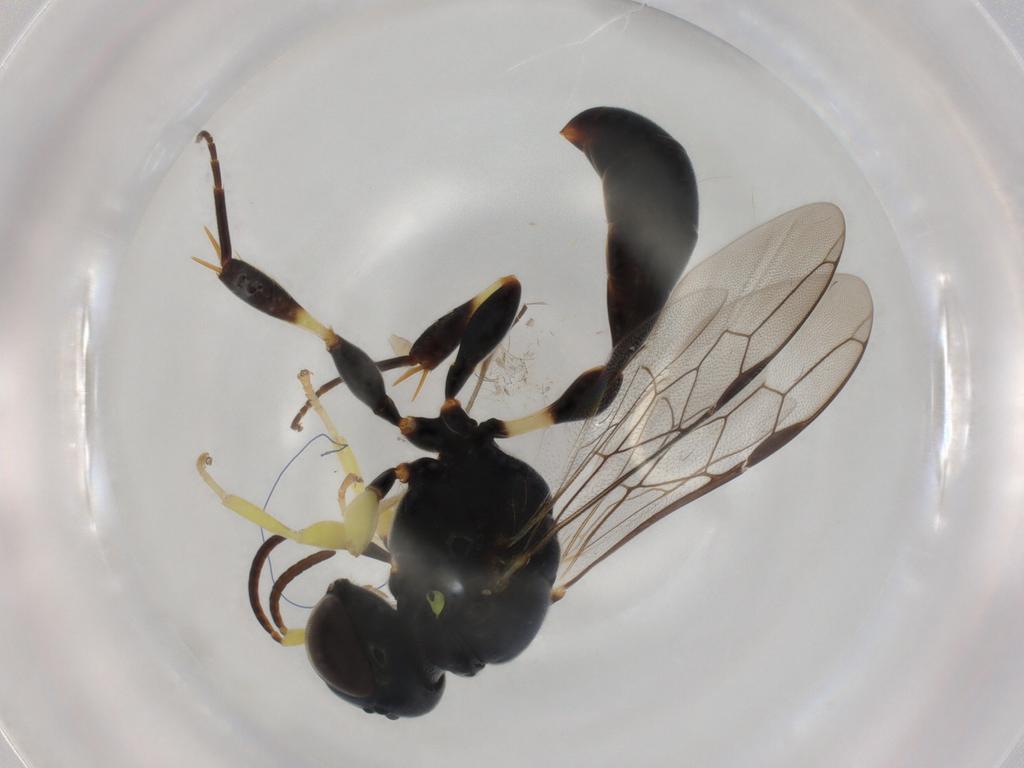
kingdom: Animalia
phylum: Arthropoda
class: Insecta
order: Hymenoptera
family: Crabronidae
